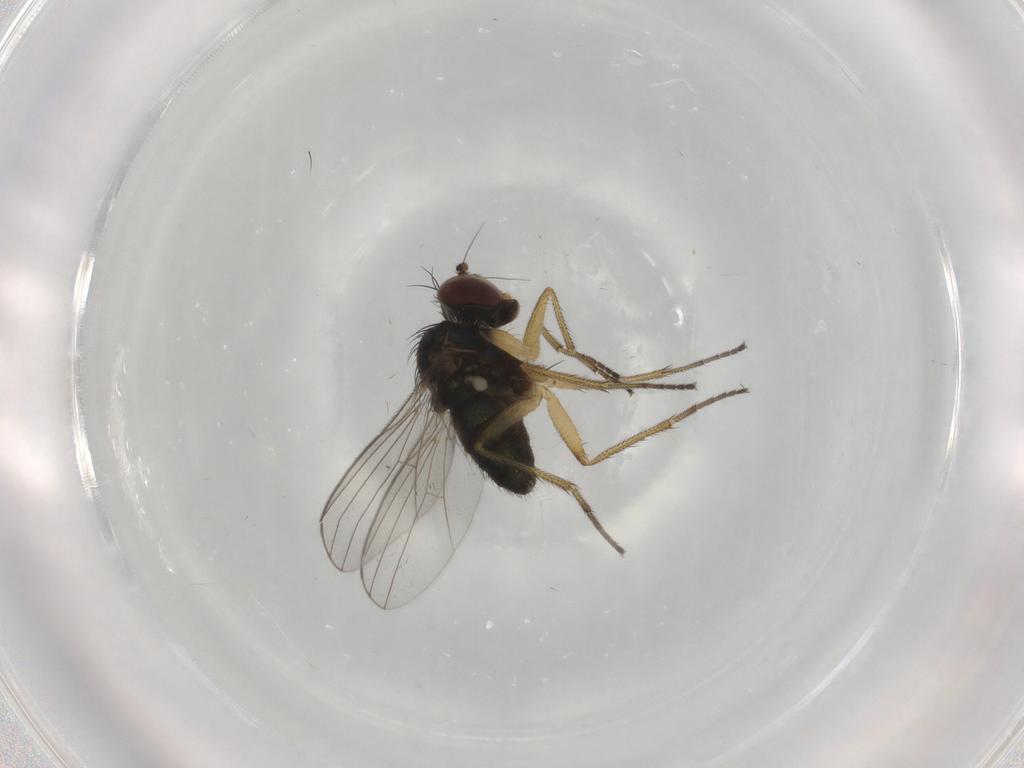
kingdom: Animalia
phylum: Arthropoda
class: Insecta
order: Diptera
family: Dolichopodidae
